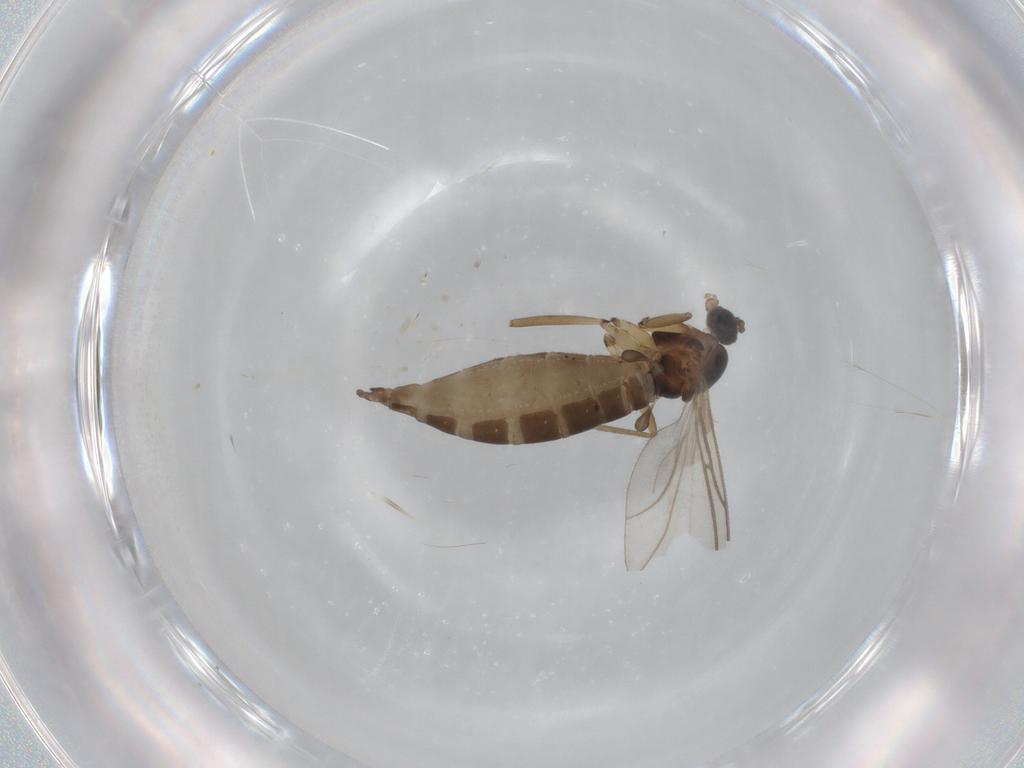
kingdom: Animalia
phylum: Arthropoda
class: Insecta
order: Diptera
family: Sciaridae
